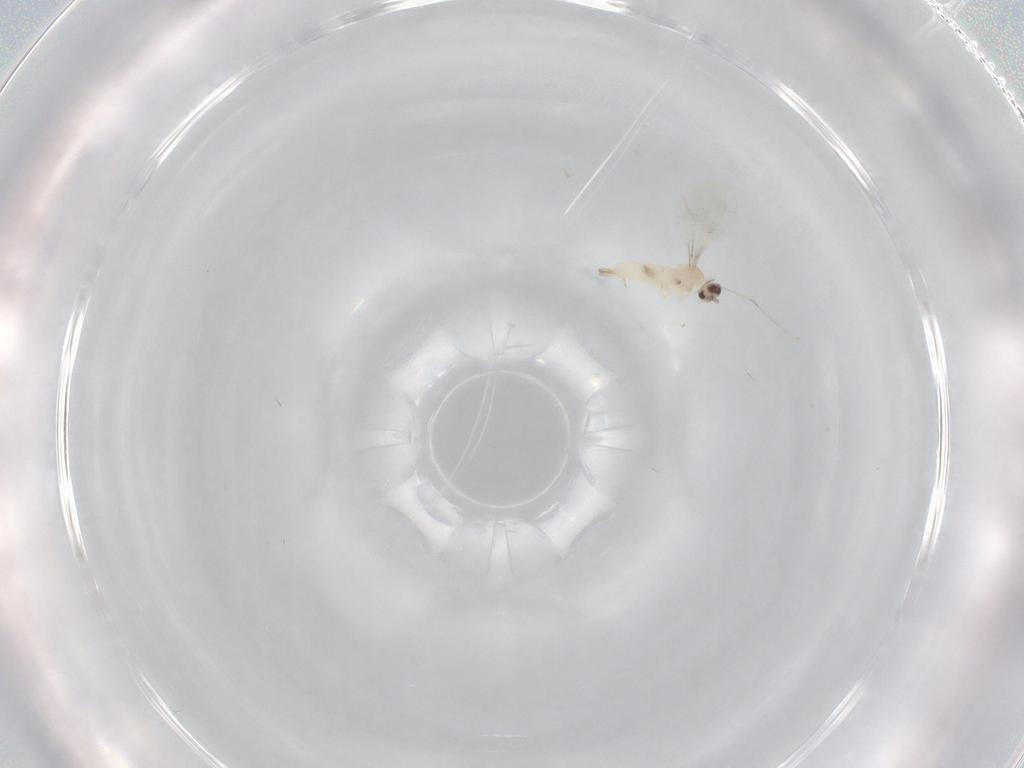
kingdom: Animalia
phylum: Arthropoda
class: Insecta
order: Diptera
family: Cecidomyiidae
